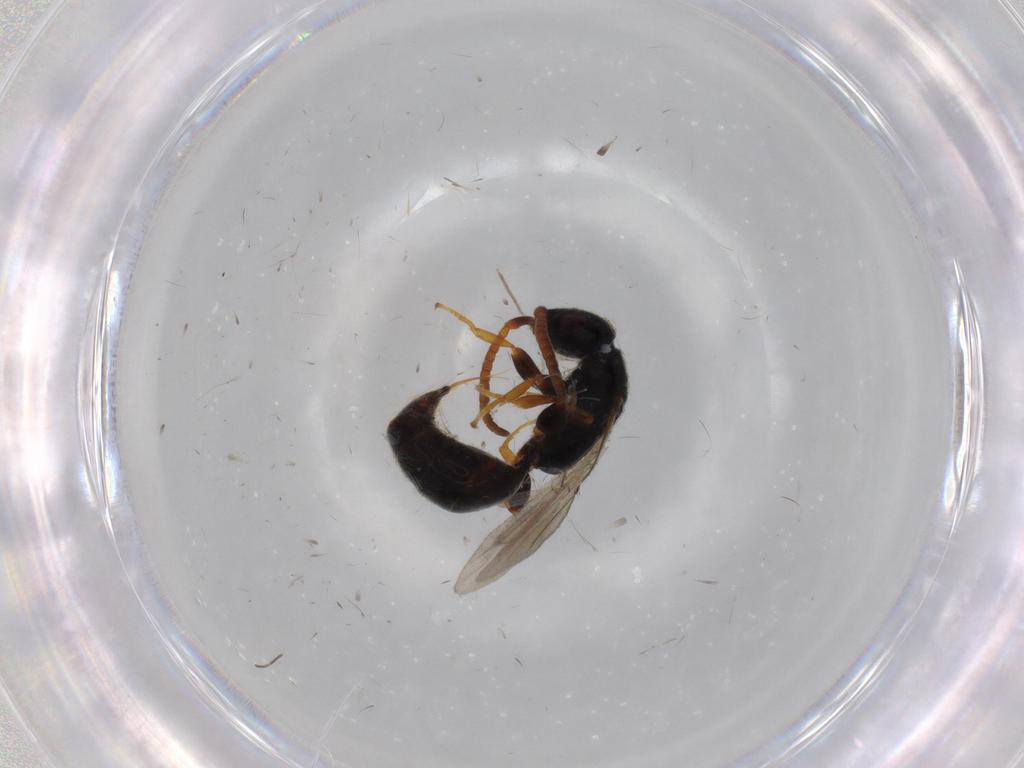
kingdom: Animalia
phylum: Arthropoda
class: Insecta
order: Hymenoptera
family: Bethylidae
